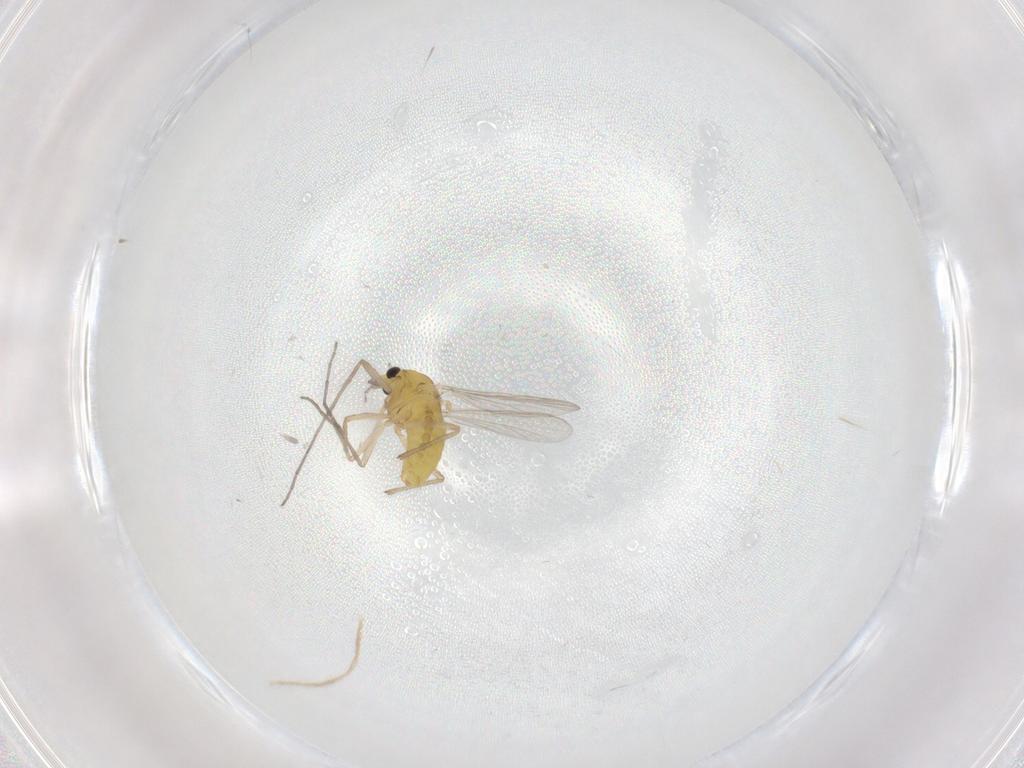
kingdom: Animalia
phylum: Arthropoda
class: Insecta
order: Diptera
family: Chironomidae
